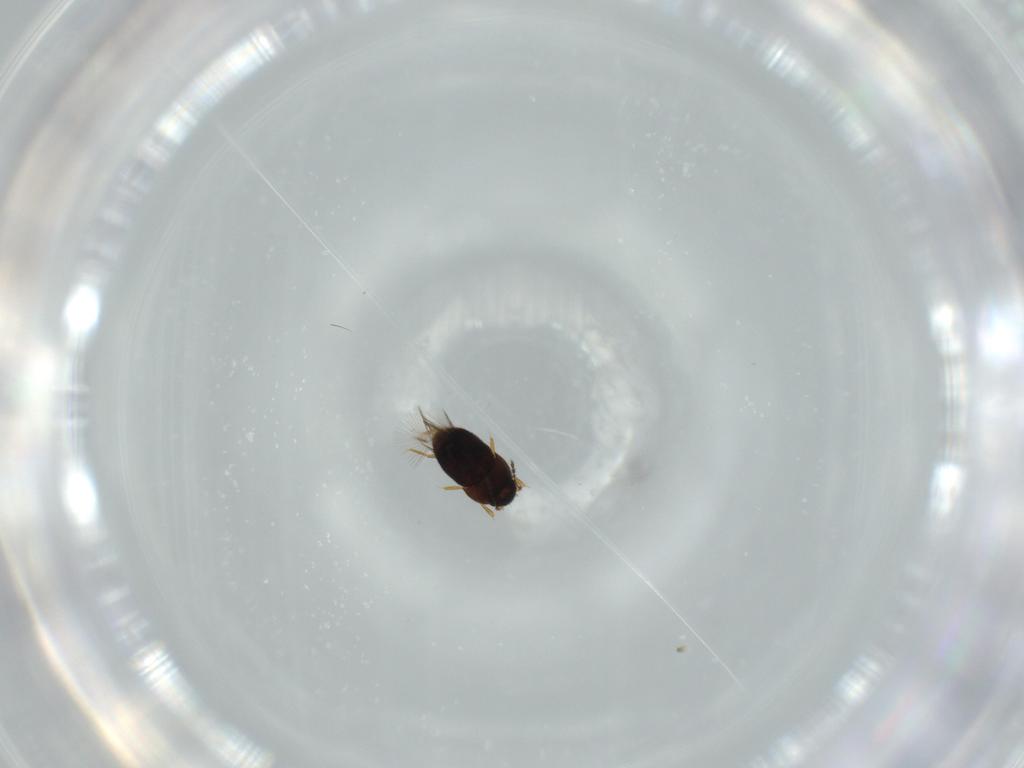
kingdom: Animalia
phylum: Arthropoda
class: Insecta
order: Coleoptera
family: Ptiliidae
